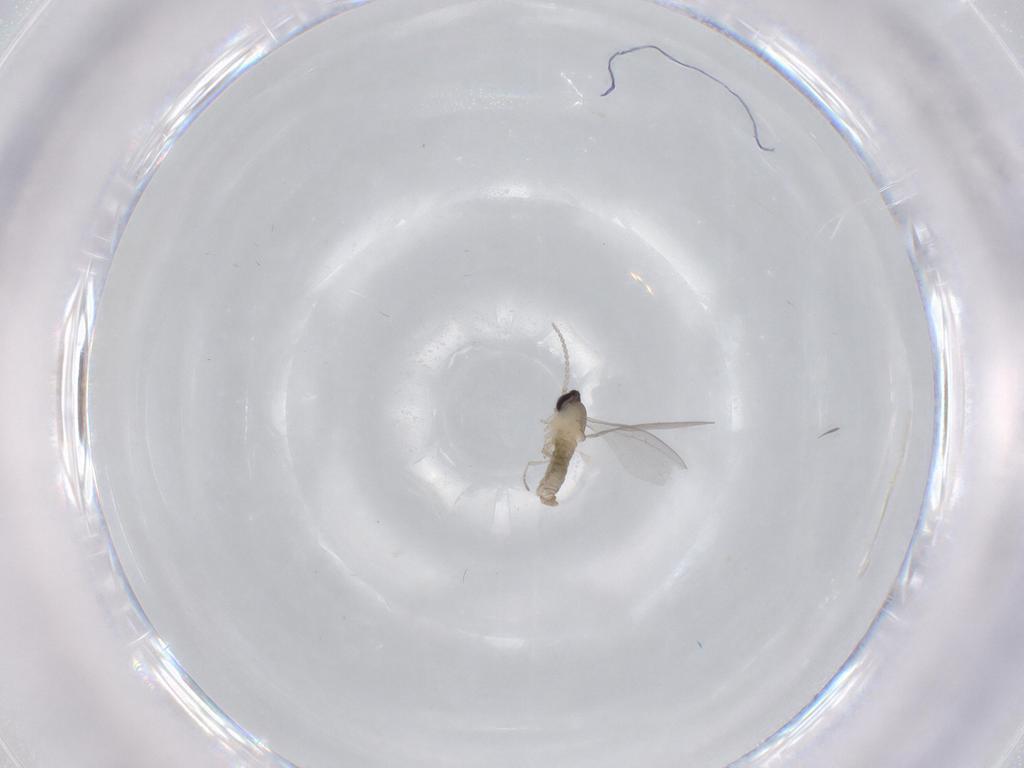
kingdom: Animalia
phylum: Arthropoda
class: Insecta
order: Diptera
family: Cecidomyiidae
